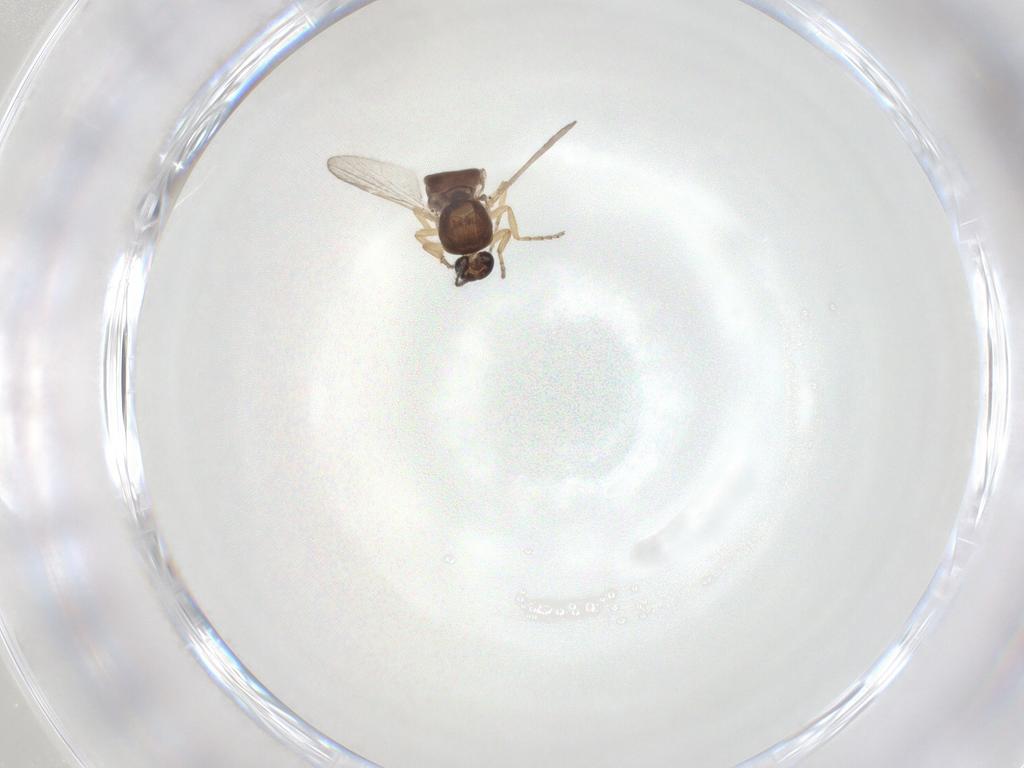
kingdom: Animalia
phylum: Arthropoda
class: Insecta
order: Diptera
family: Ceratopogonidae
